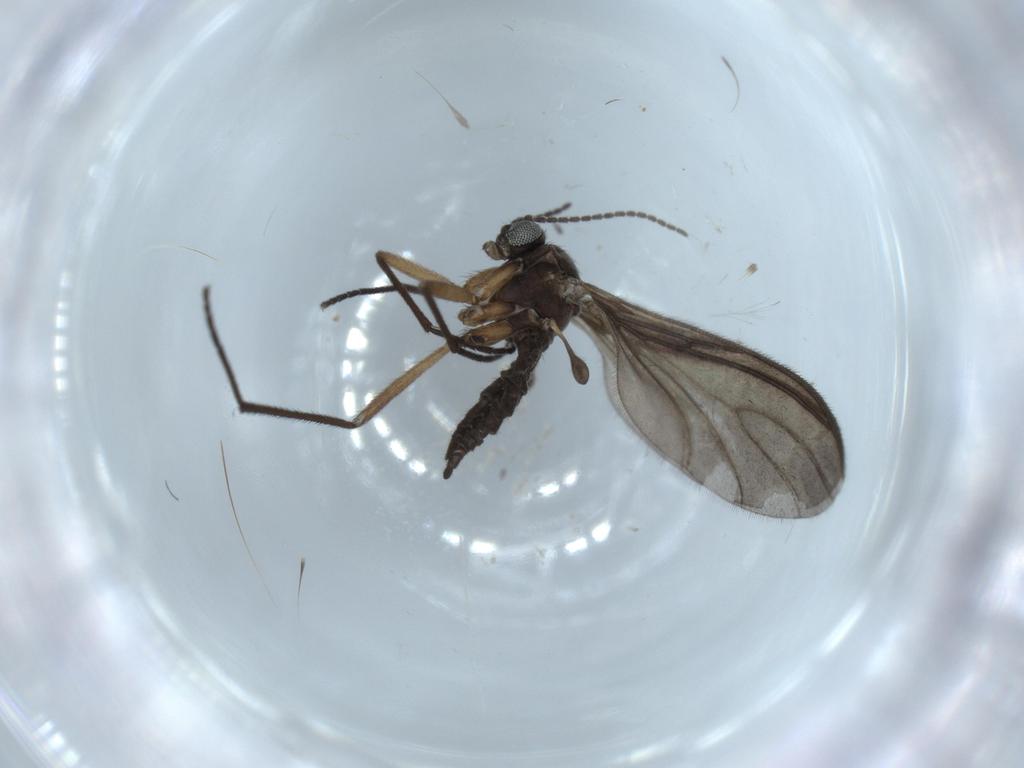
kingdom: Animalia
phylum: Arthropoda
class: Insecta
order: Diptera
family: Sciaridae
